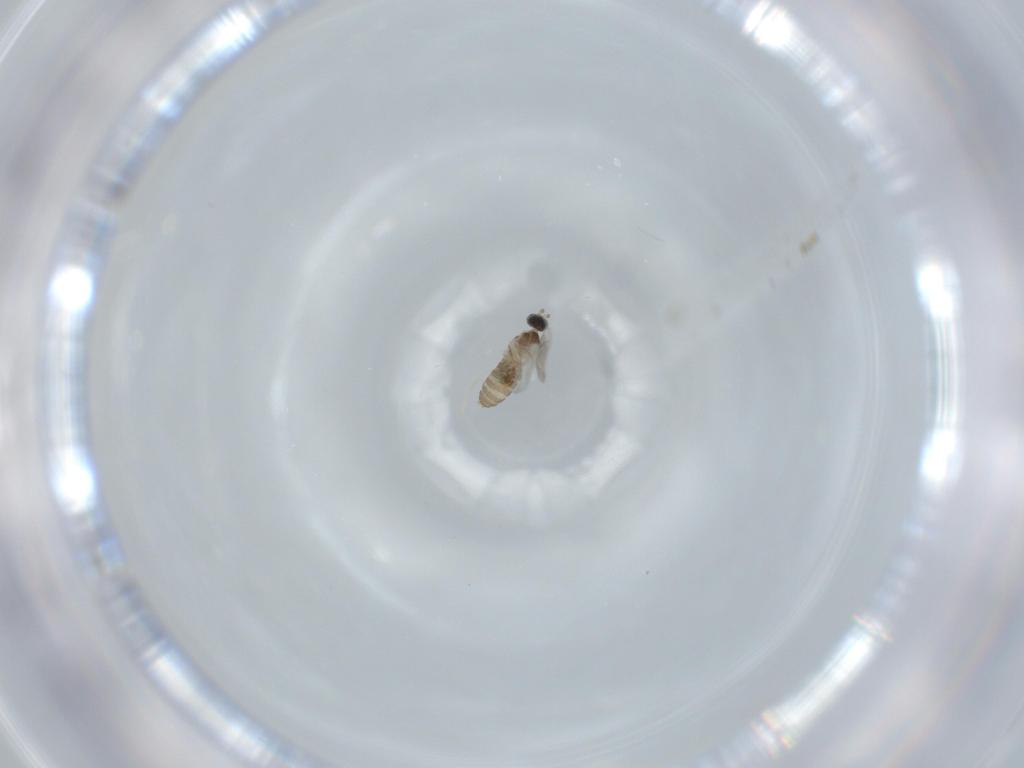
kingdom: Animalia
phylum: Arthropoda
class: Insecta
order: Diptera
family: Cecidomyiidae
